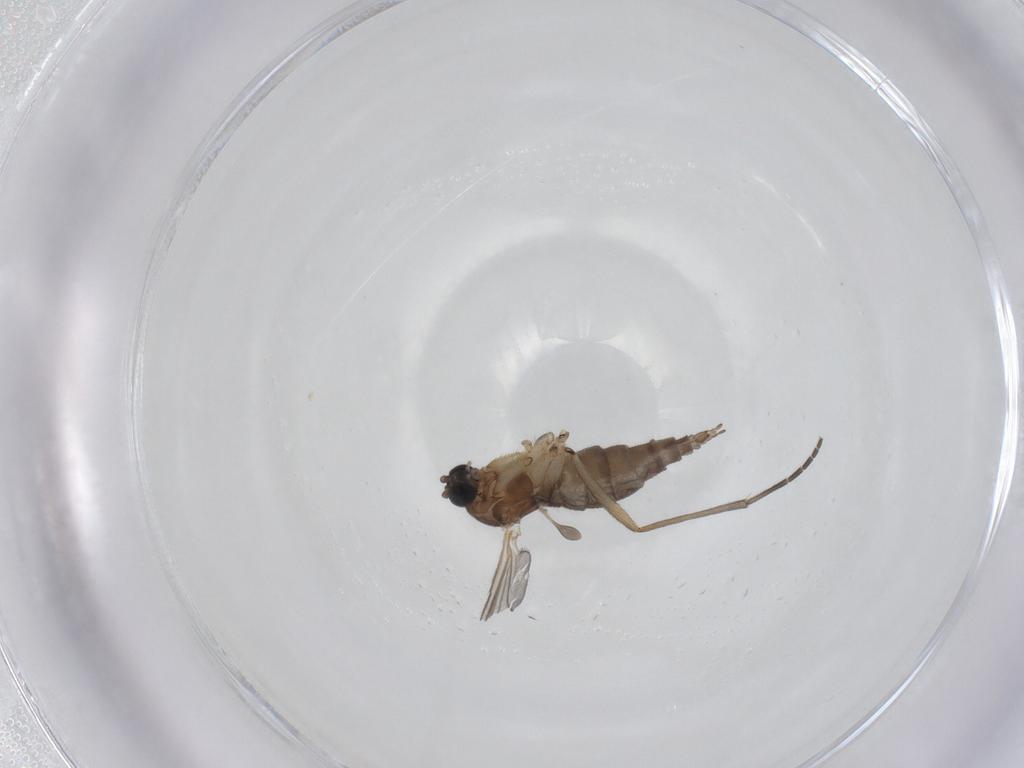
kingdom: Animalia
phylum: Arthropoda
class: Insecta
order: Diptera
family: Sciaridae
